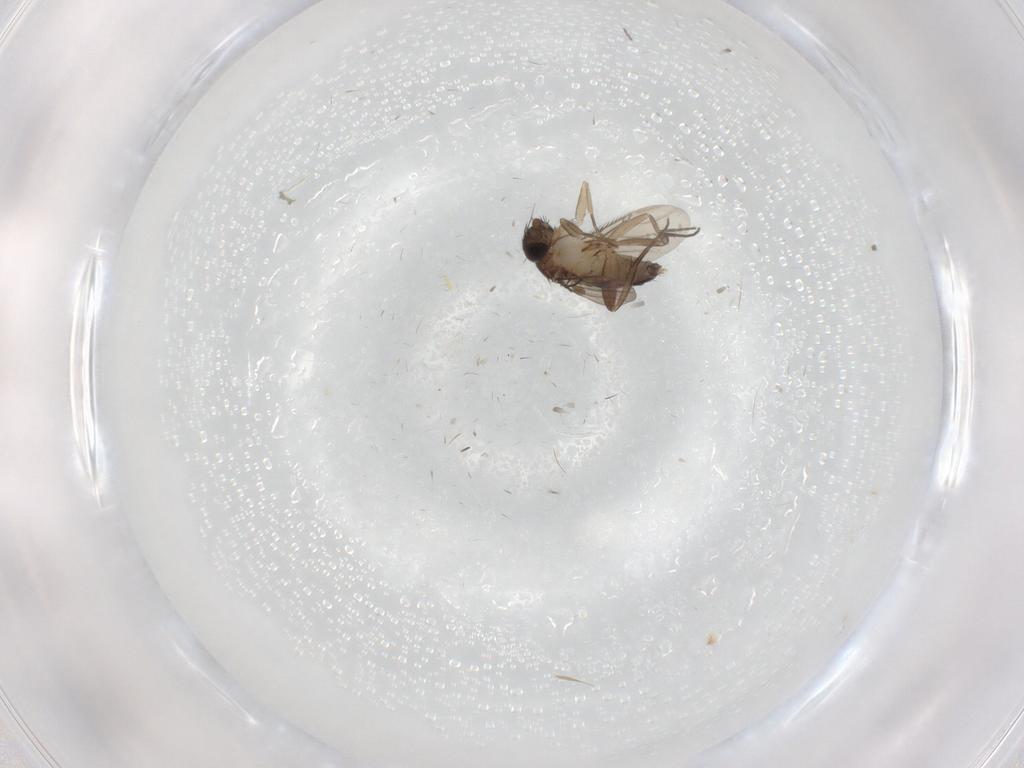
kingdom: Animalia
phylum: Arthropoda
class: Insecta
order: Diptera
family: Phoridae
